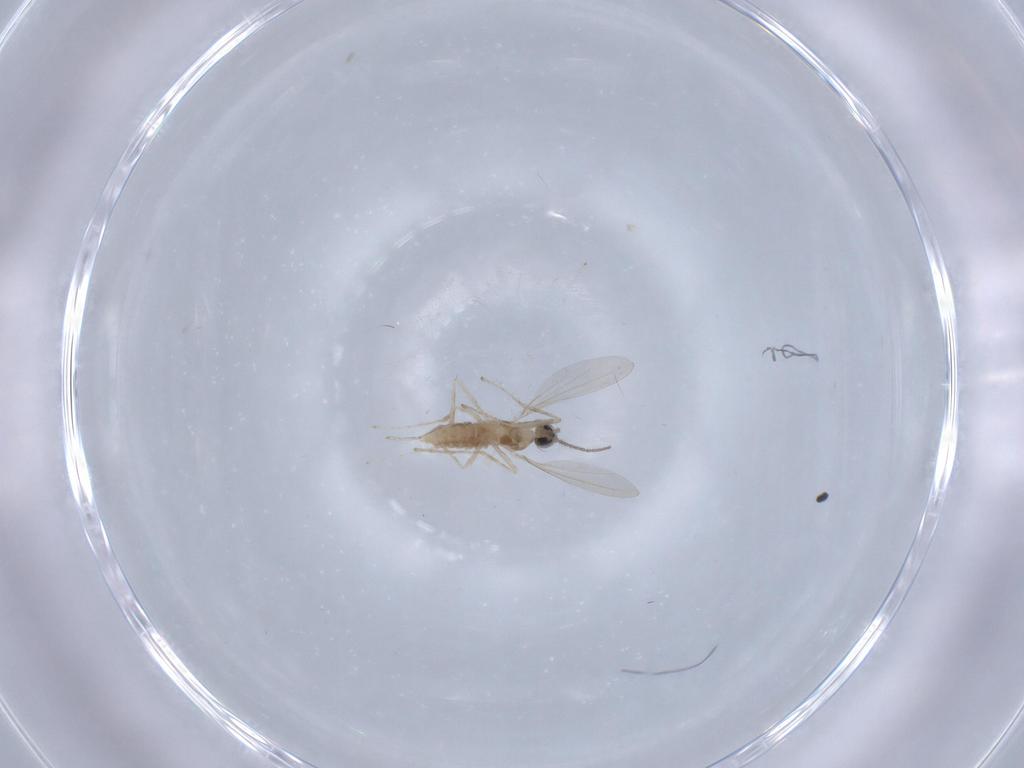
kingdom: Animalia
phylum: Arthropoda
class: Insecta
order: Diptera
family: Cecidomyiidae
